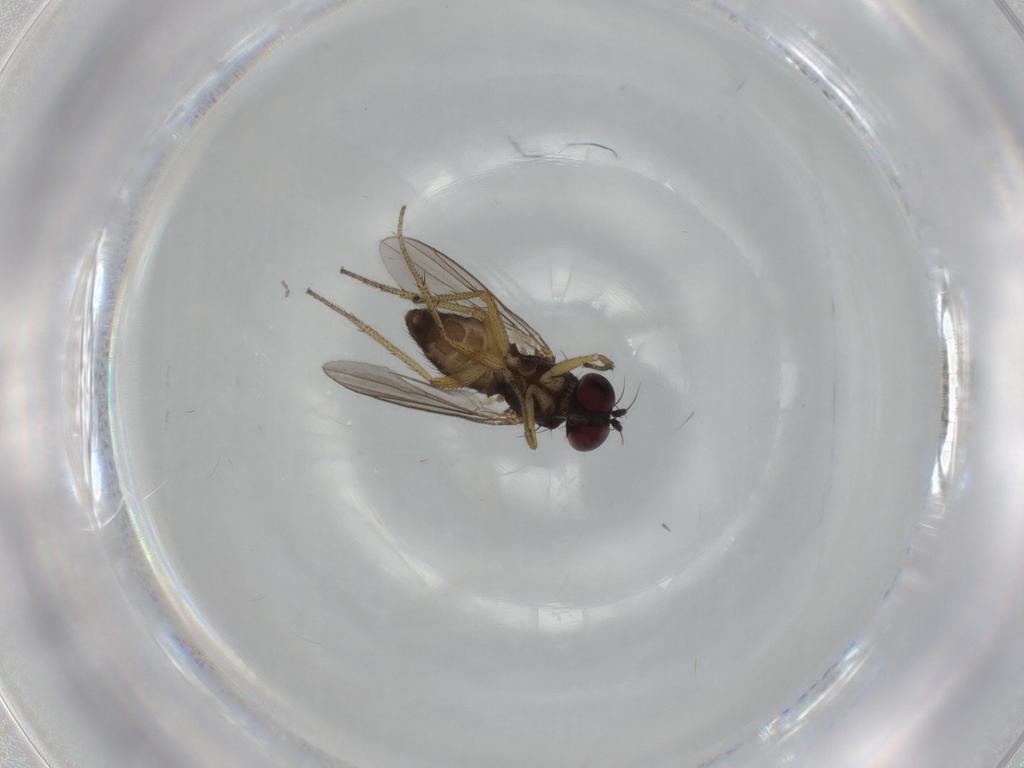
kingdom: Animalia
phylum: Arthropoda
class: Insecta
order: Diptera
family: Dolichopodidae
